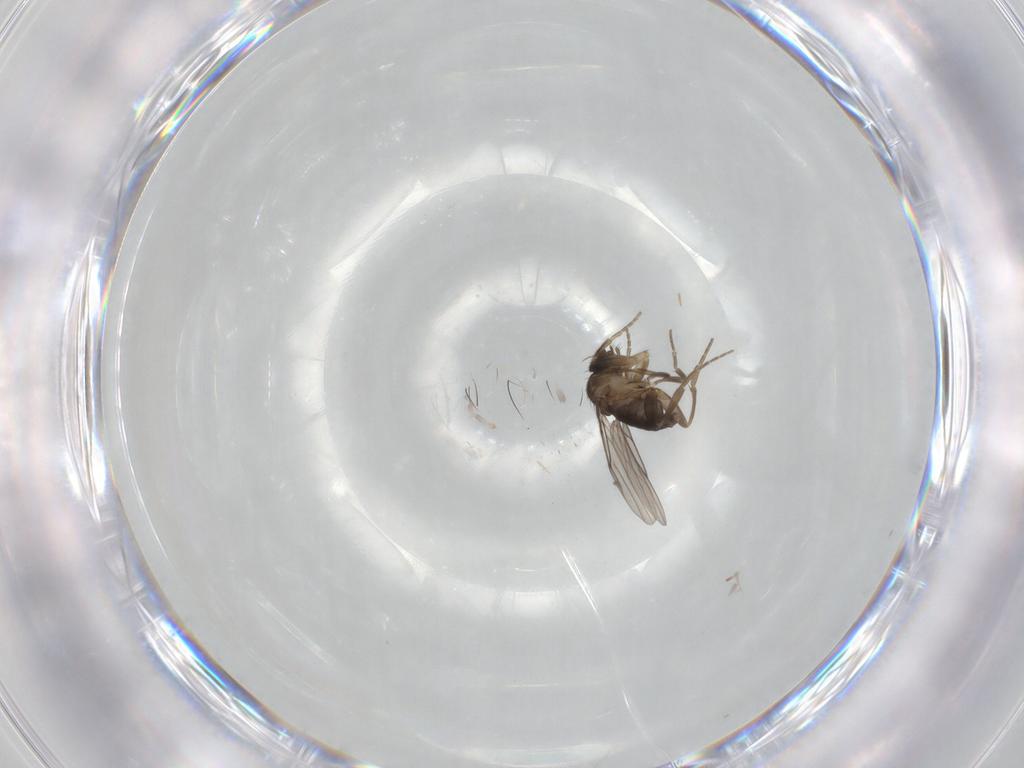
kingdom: Animalia
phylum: Arthropoda
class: Insecta
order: Diptera
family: Phoridae
